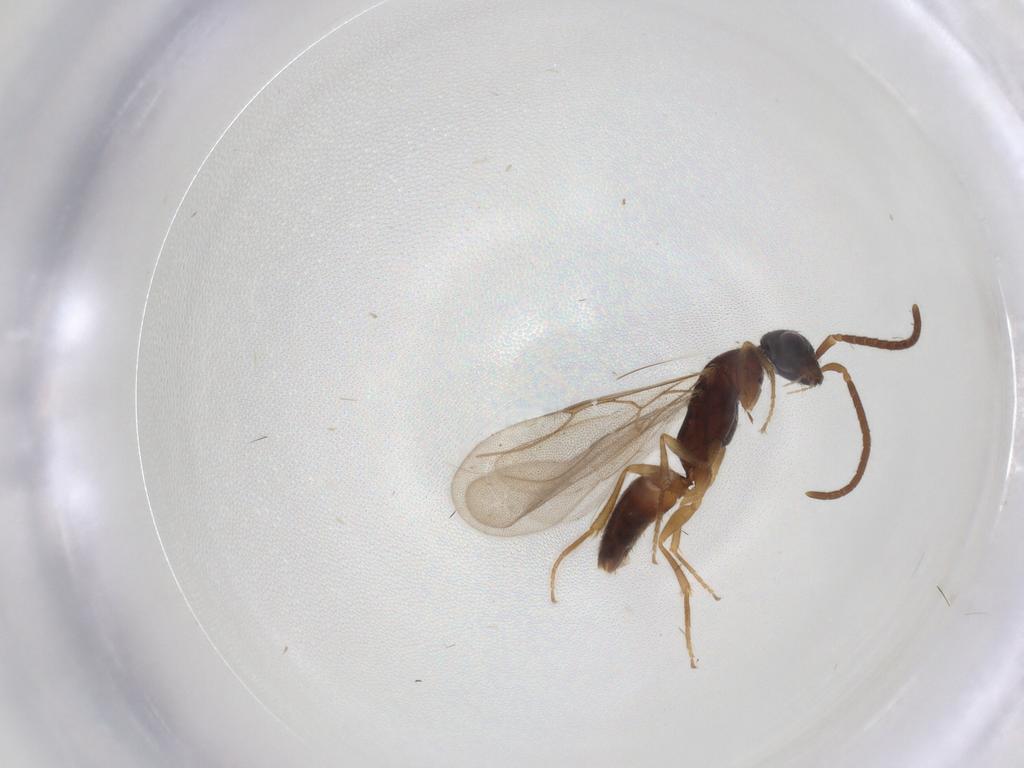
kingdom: Animalia
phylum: Arthropoda
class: Insecta
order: Hymenoptera
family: Bethylidae
